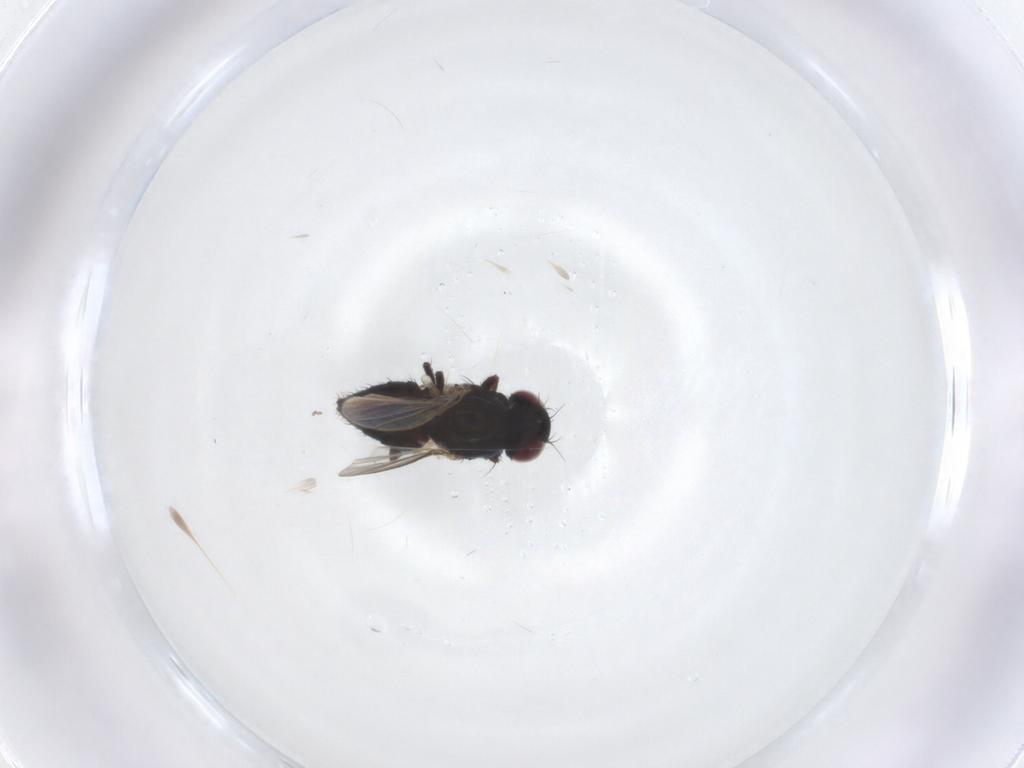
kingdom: Animalia
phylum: Arthropoda
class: Insecta
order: Diptera
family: Carnidae
